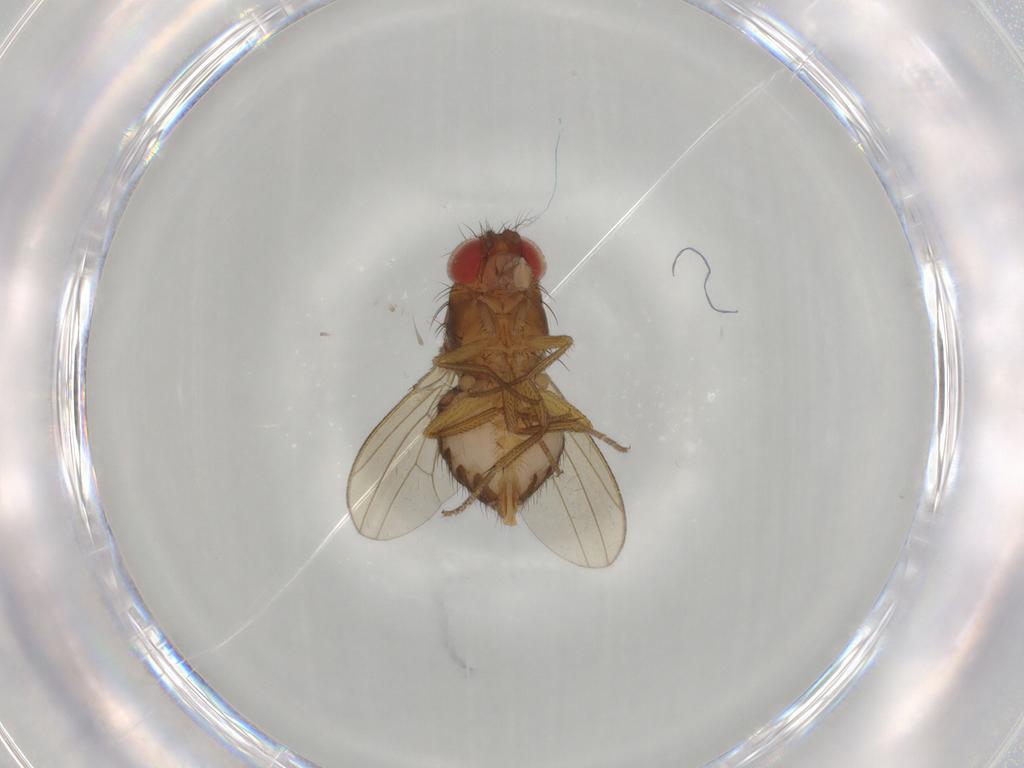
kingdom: Animalia
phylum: Arthropoda
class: Insecta
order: Diptera
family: Drosophilidae
